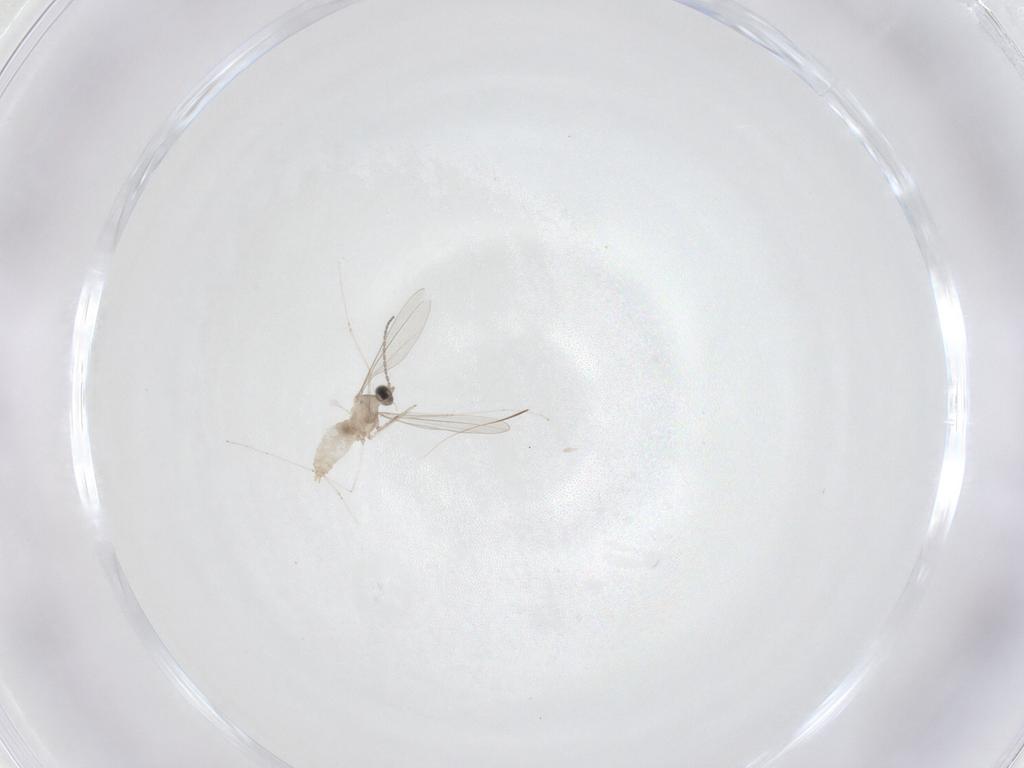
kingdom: Animalia
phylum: Arthropoda
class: Insecta
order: Diptera
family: Cecidomyiidae
